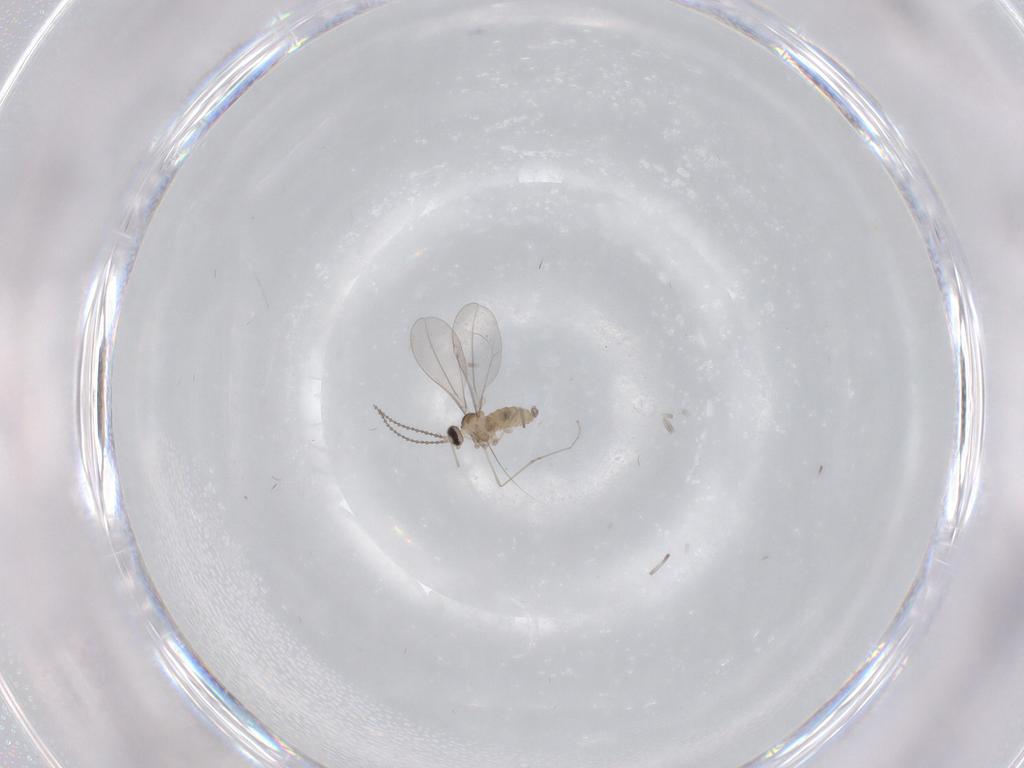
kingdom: Animalia
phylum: Arthropoda
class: Insecta
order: Diptera
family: Cecidomyiidae
